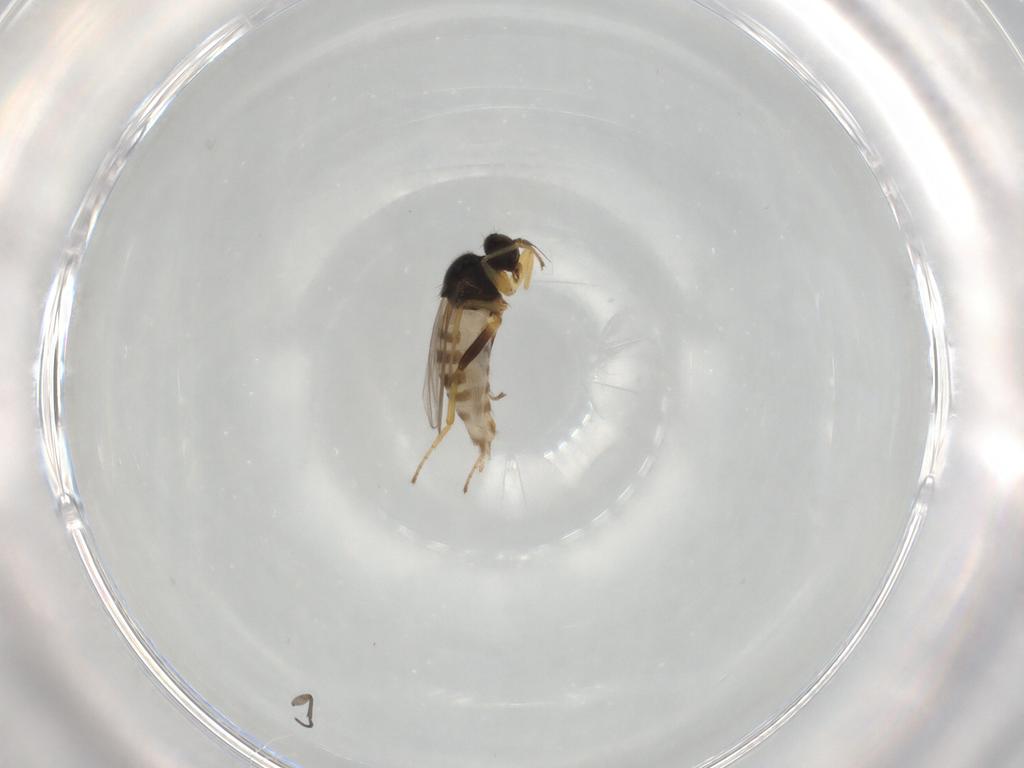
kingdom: Animalia
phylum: Arthropoda
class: Insecta
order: Diptera
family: Hybotidae
